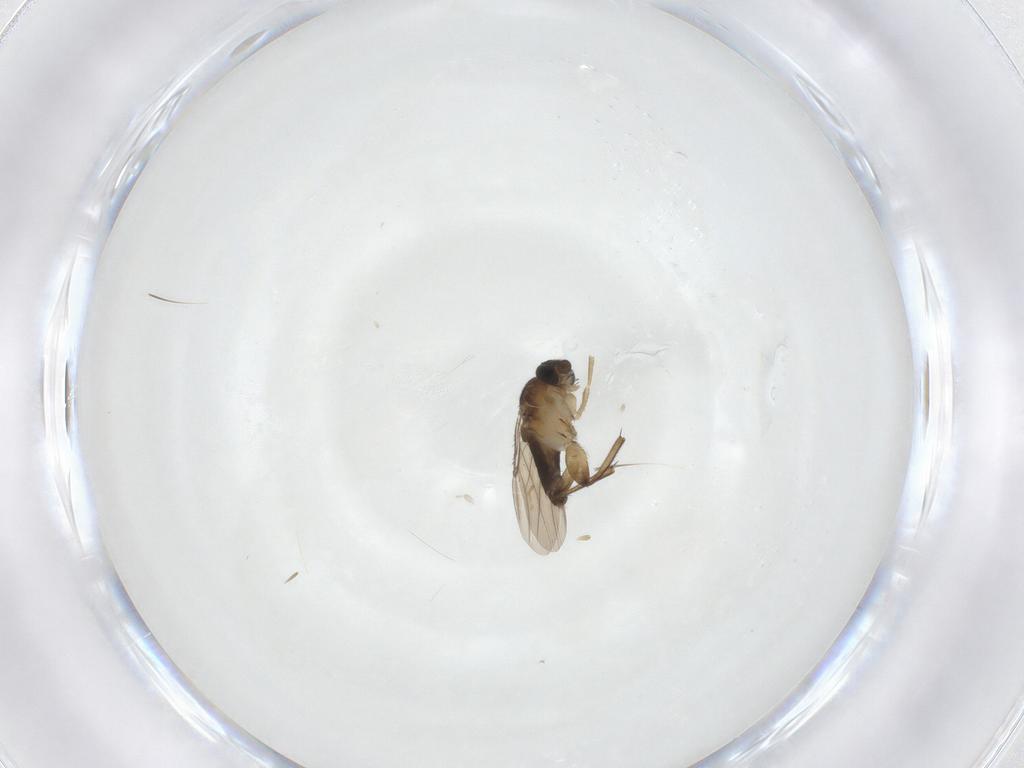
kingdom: Animalia
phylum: Arthropoda
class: Insecta
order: Diptera
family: Phoridae
